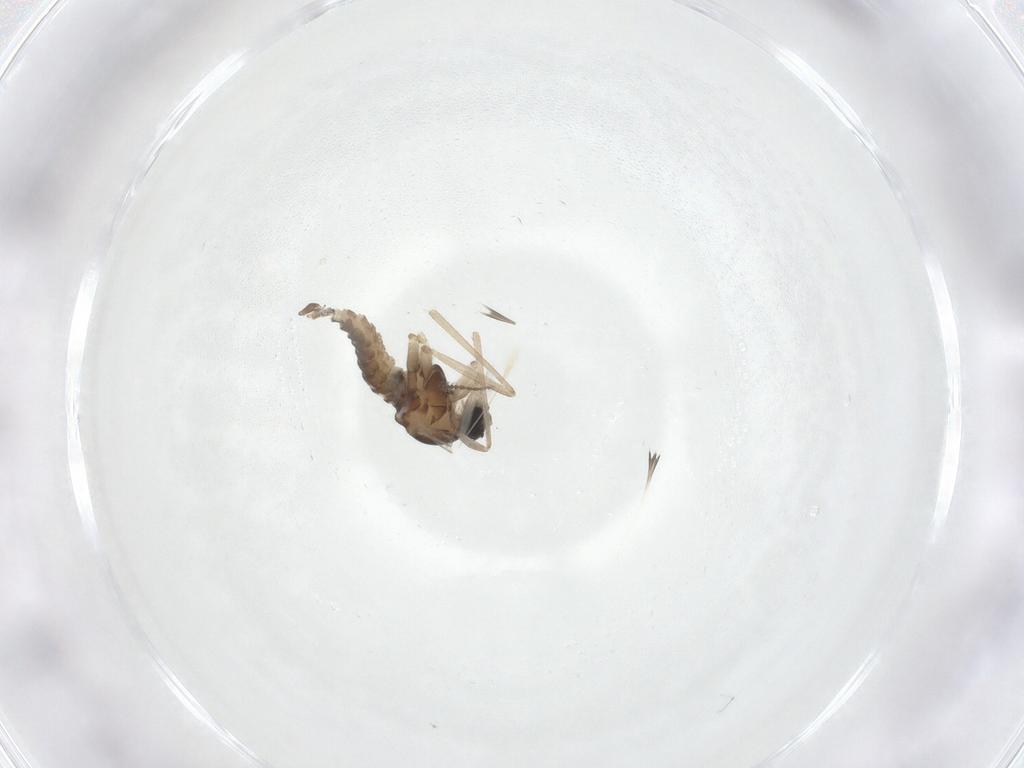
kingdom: Animalia
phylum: Arthropoda
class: Insecta
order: Diptera
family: Cecidomyiidae
